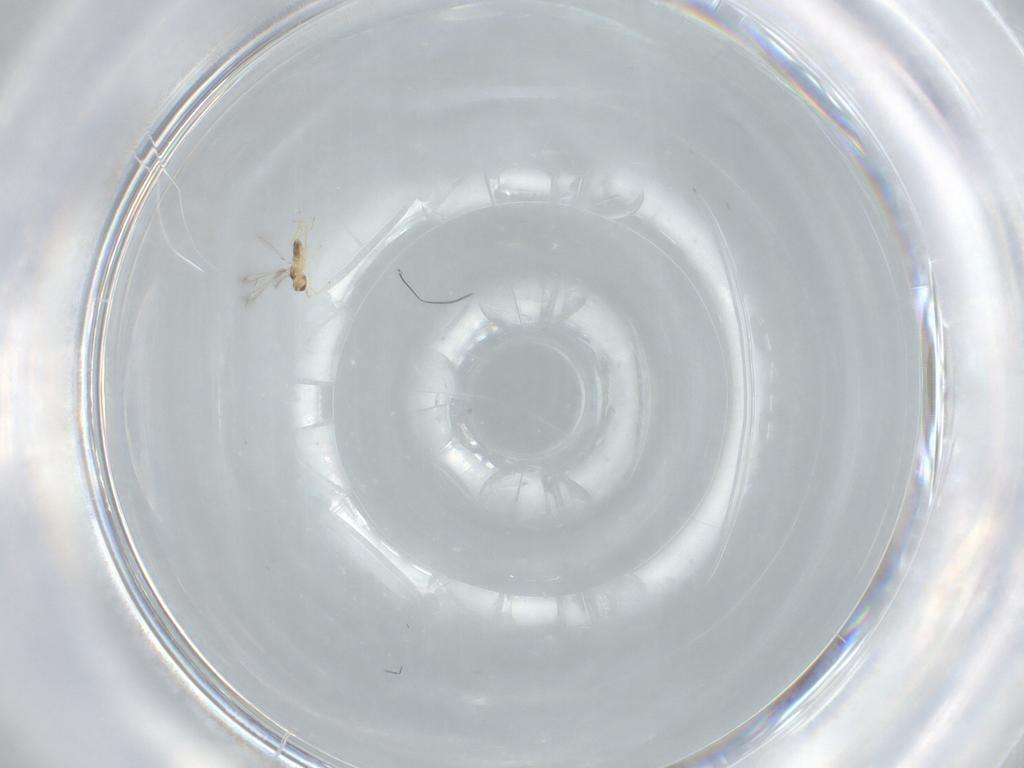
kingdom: Animalia
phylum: Arthropoda
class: Insecta
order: Hymenoptera
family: Mymaridae
